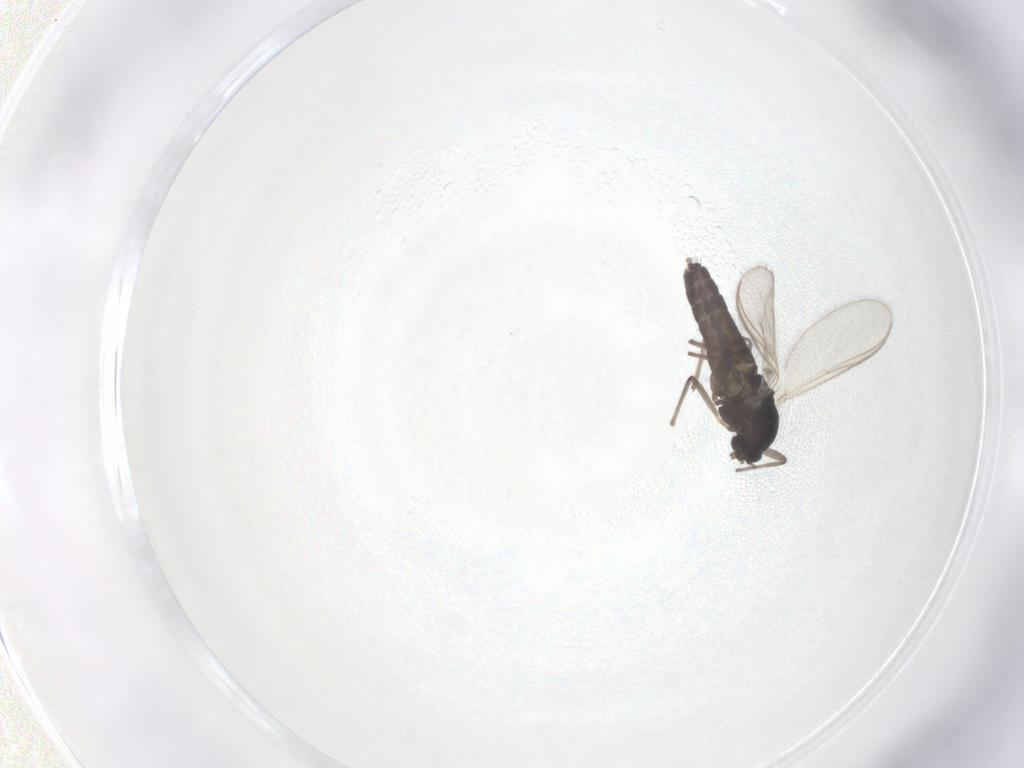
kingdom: Animalia
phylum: Arthropoda
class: Insecta
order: Diptera
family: Chironomidae
